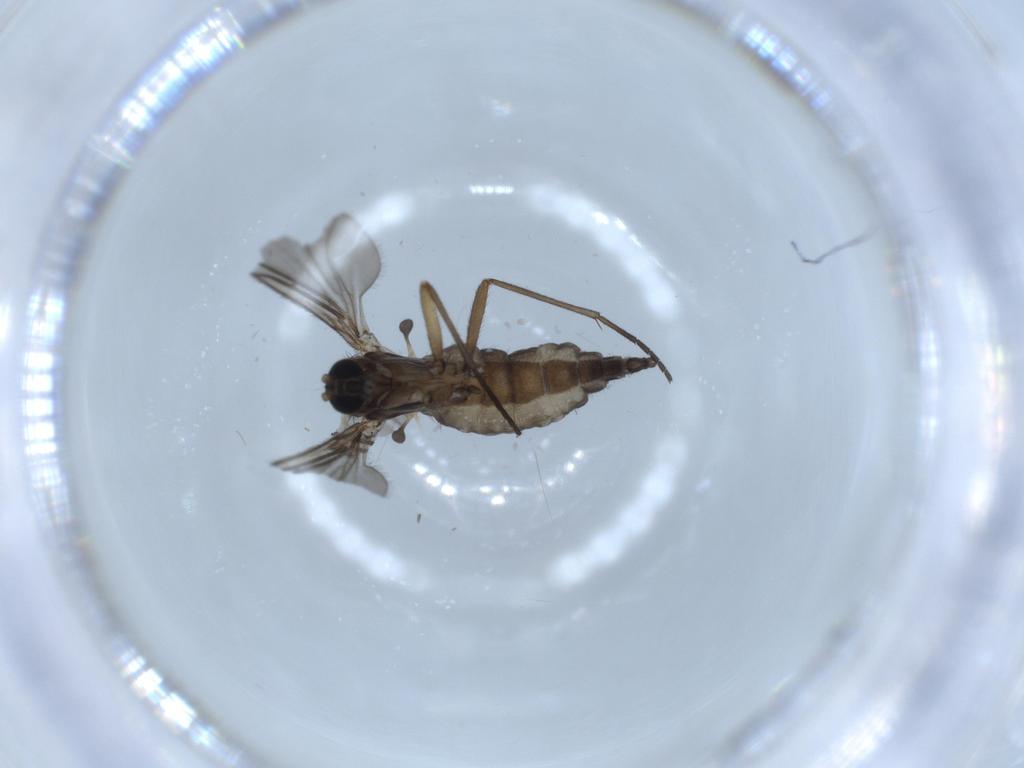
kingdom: Animalia
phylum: Arthropoda
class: Insecta
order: Diptera
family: Sciaridae
